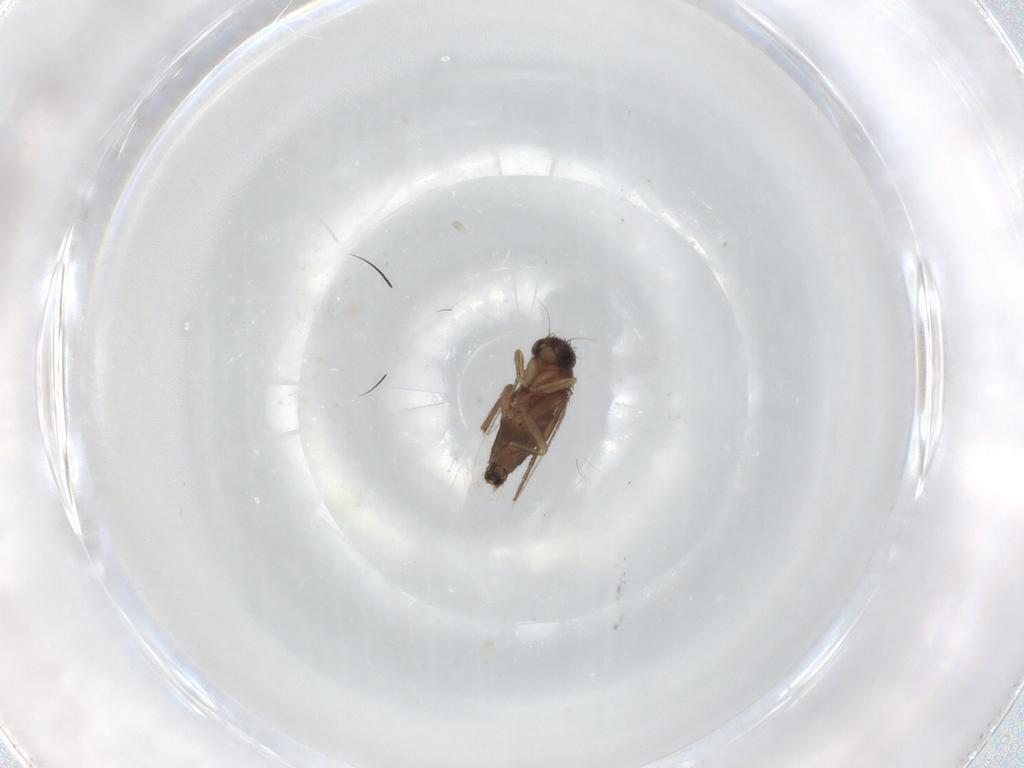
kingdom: Animalia
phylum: Arthropoda
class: Insecta
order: Diptera
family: Phoridae
